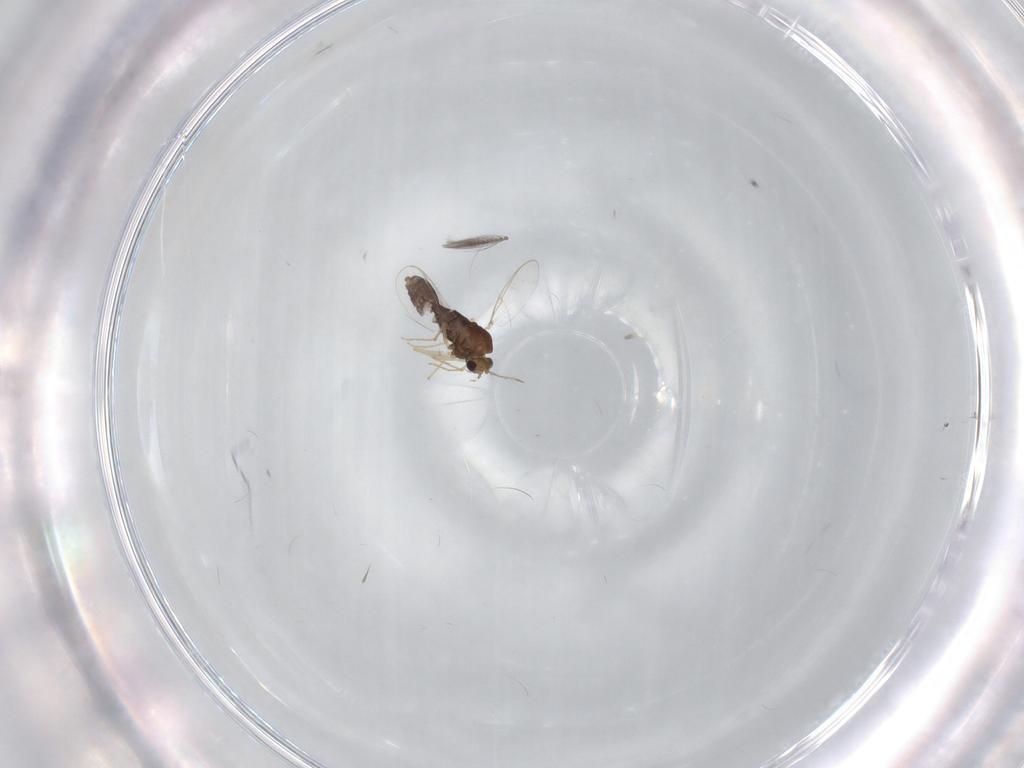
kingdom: Animalia
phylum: Arthropoda
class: Insecta
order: Diptera
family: Chironomidae
